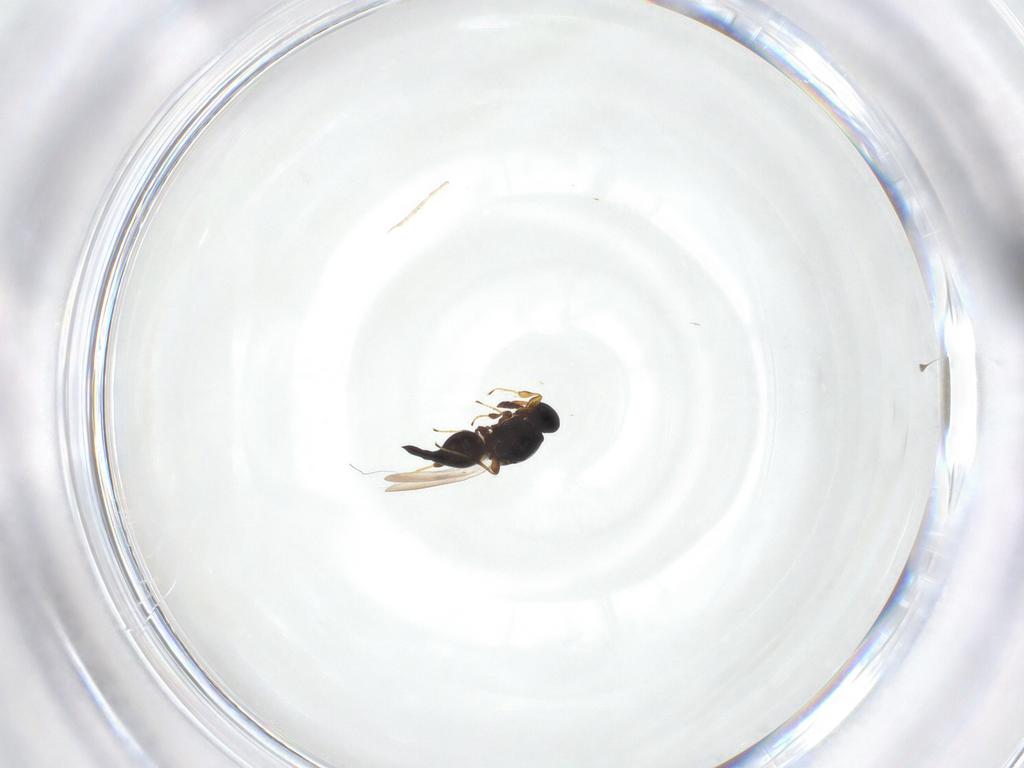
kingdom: Animalia
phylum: Arthropoda
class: Insecta
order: Hymenoptera
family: Platygastridae
